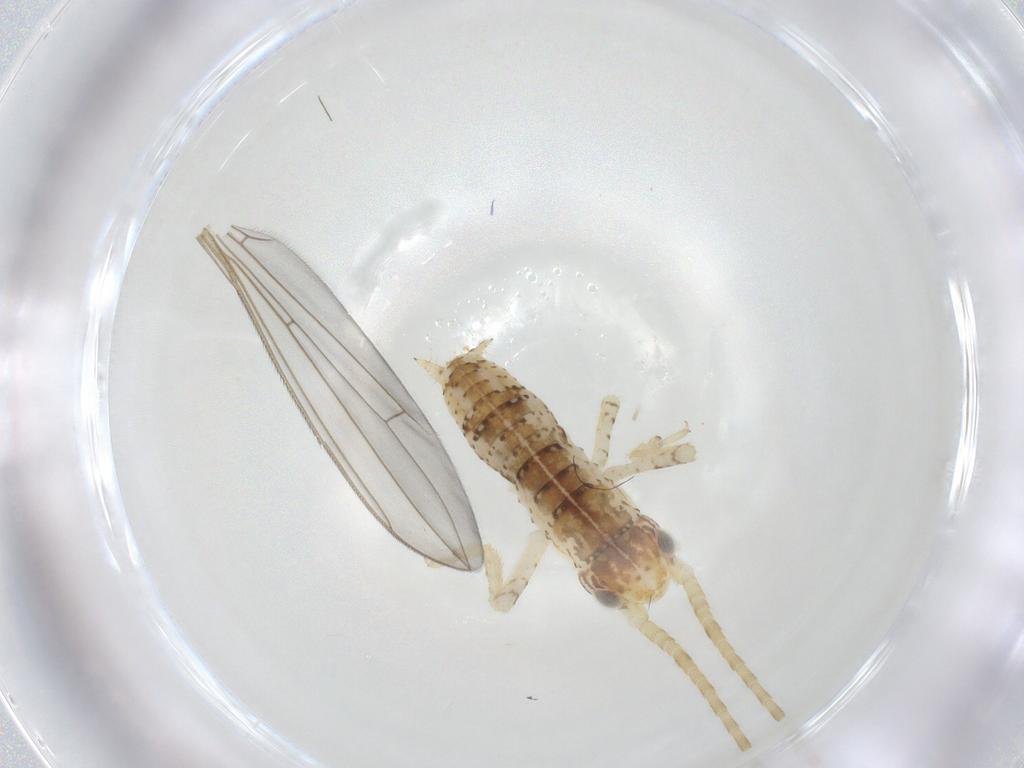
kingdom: Animalia
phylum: Arthropoda
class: Insecta
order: Orthoptera
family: Gryllidae
